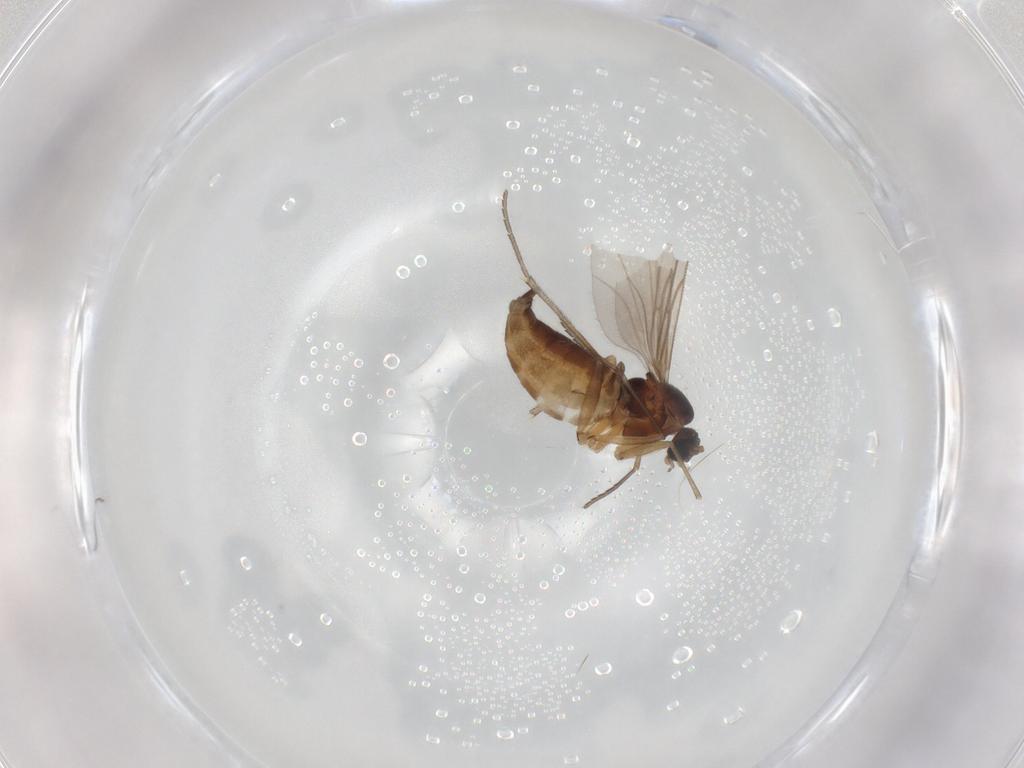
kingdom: Animalia
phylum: Arthropoda
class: Insecta
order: Diptera
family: Sciaridae
